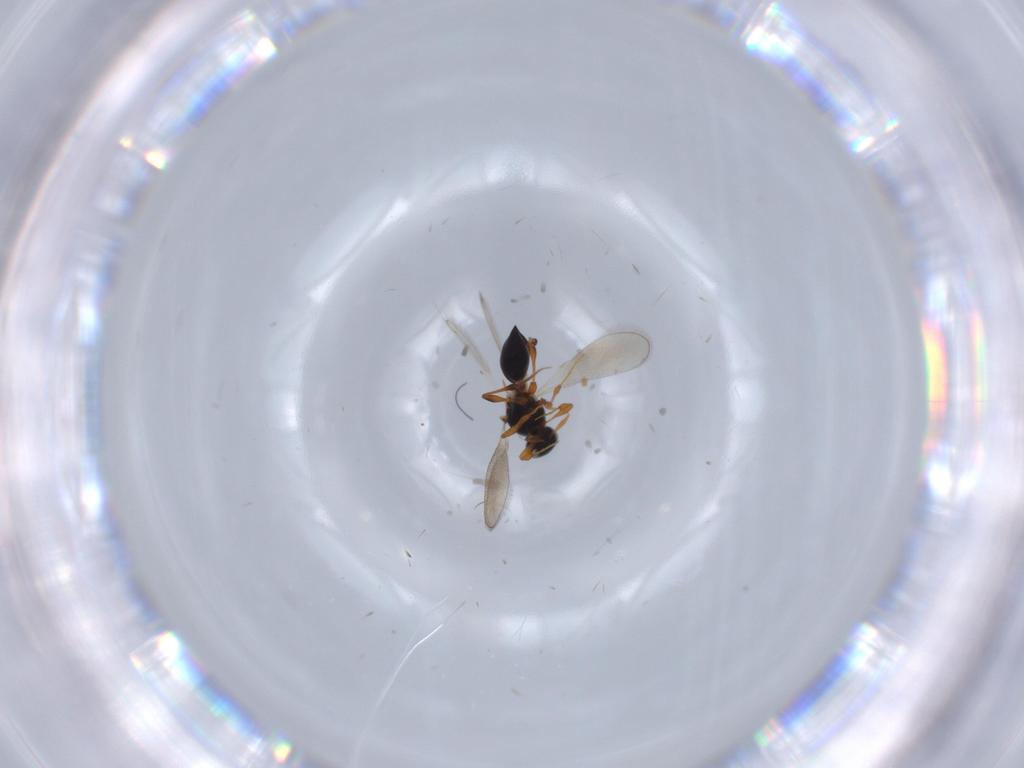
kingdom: Animalia
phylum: Arthropoda
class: Insecta
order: Hymenoptera
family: Platygastridae
